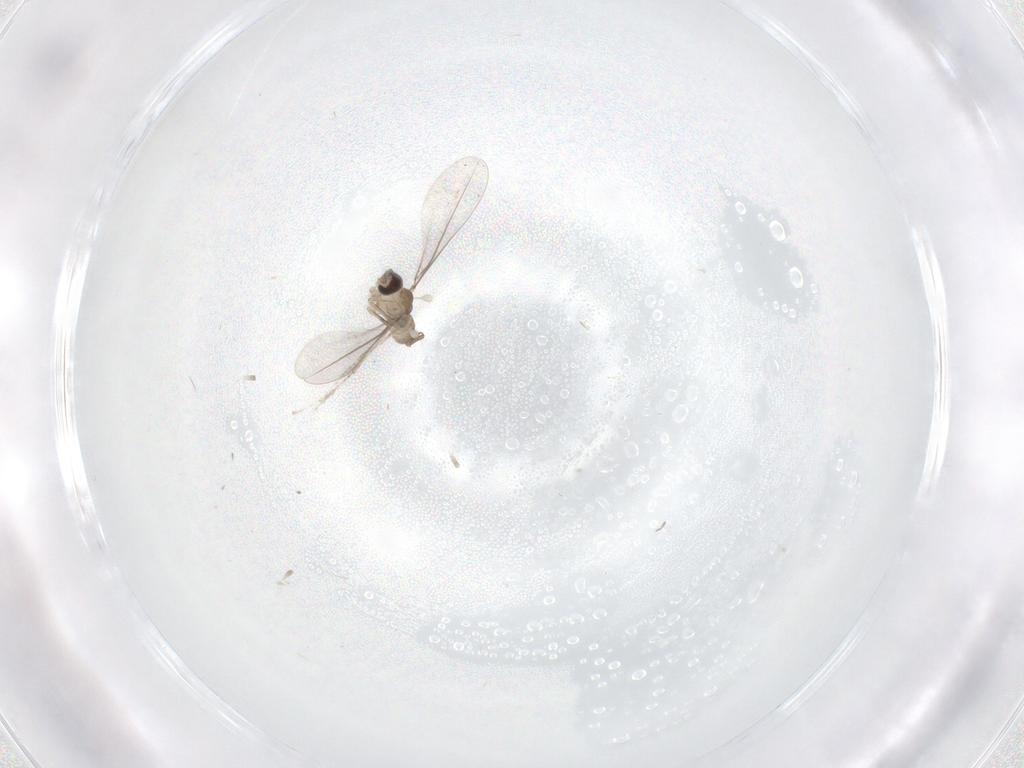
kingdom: Animalia
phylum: Arthropoda
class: Insecta
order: Diptera
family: Cecidomyiidae
